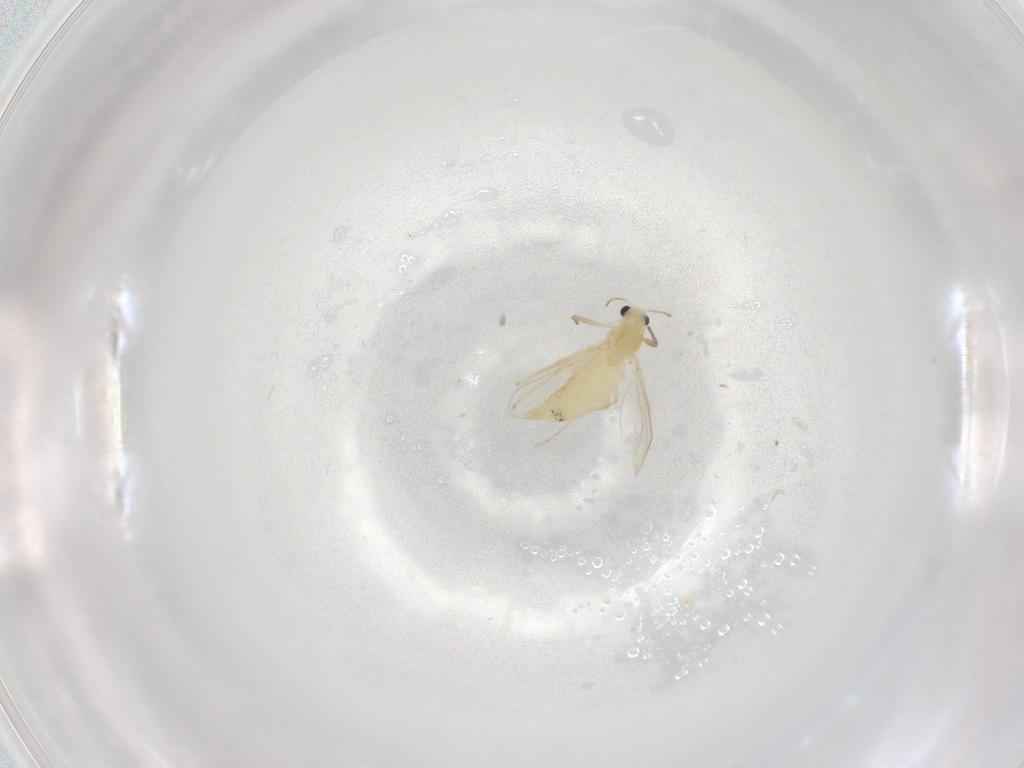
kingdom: Animalia
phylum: Arthropoda
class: Insecta
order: Diptera
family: Chironomidae
